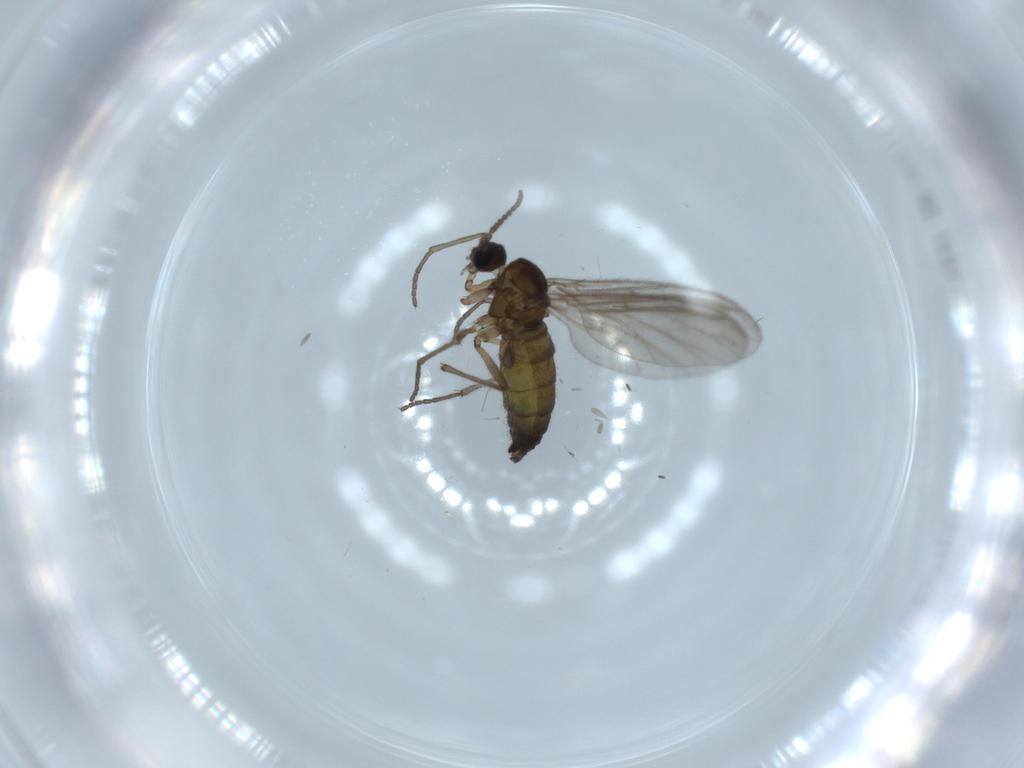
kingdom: Animalia
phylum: Arthropoda
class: Insecta
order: Diptera
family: Sciaridae
